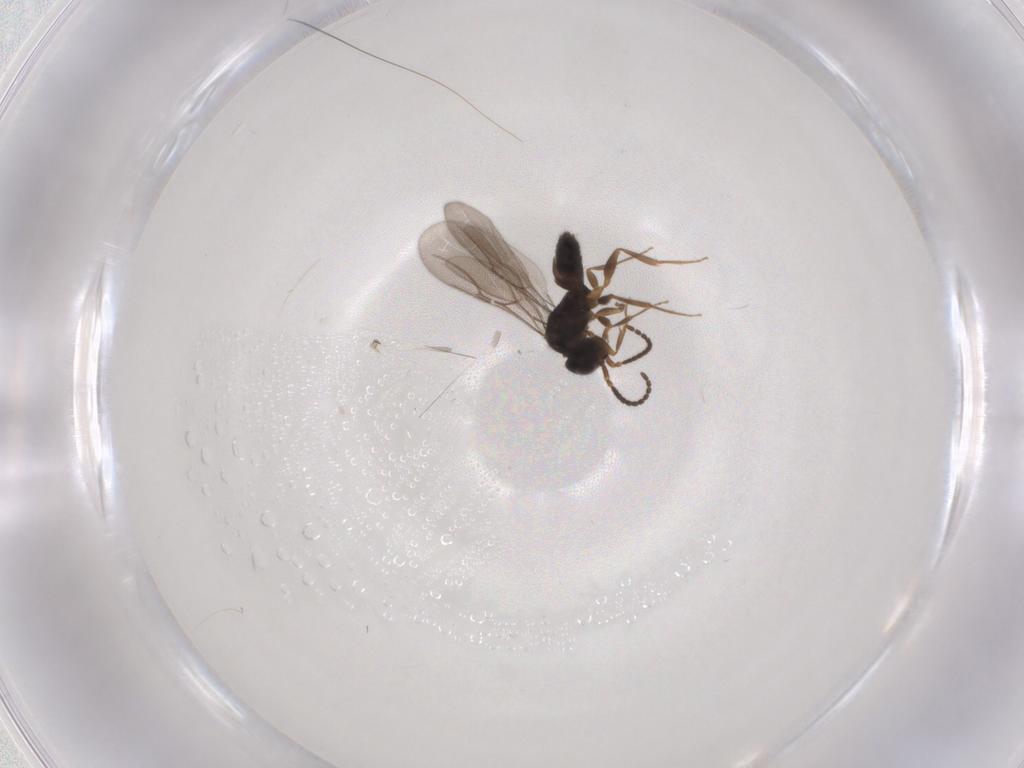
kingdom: Animalia
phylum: Arthropoda
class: Insecta
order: Hymenoptera
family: Bethylidae
